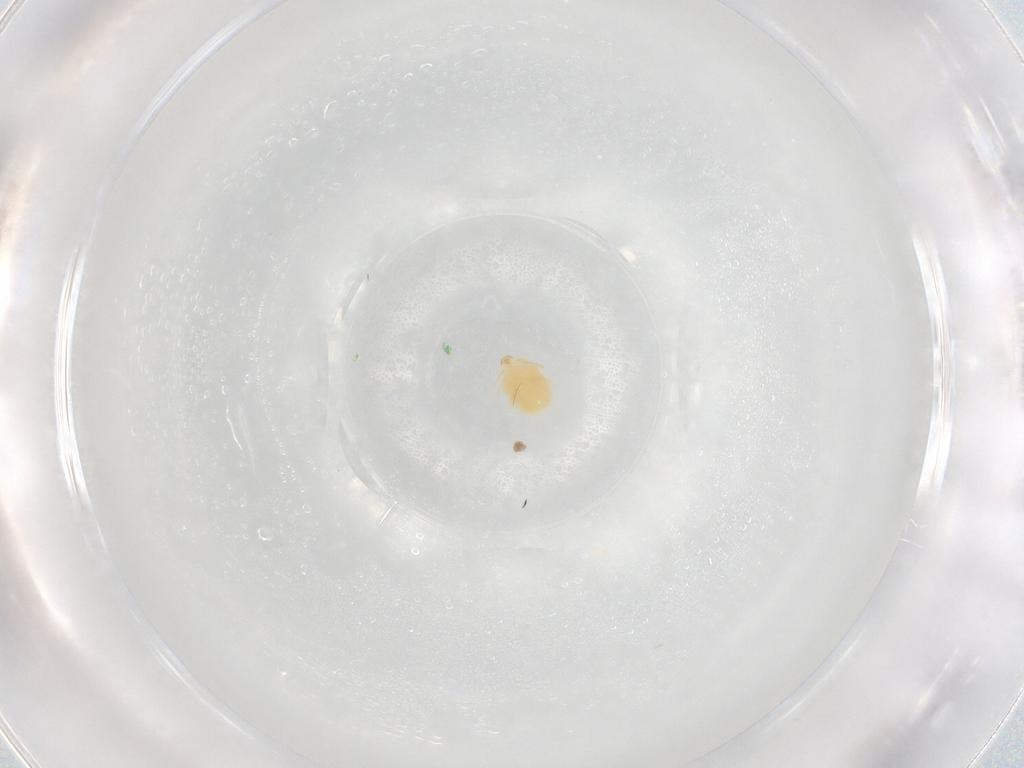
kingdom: Animalia
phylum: Arthropoda
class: Arachnida
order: Trombidiformes
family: Microtrombidiidae
